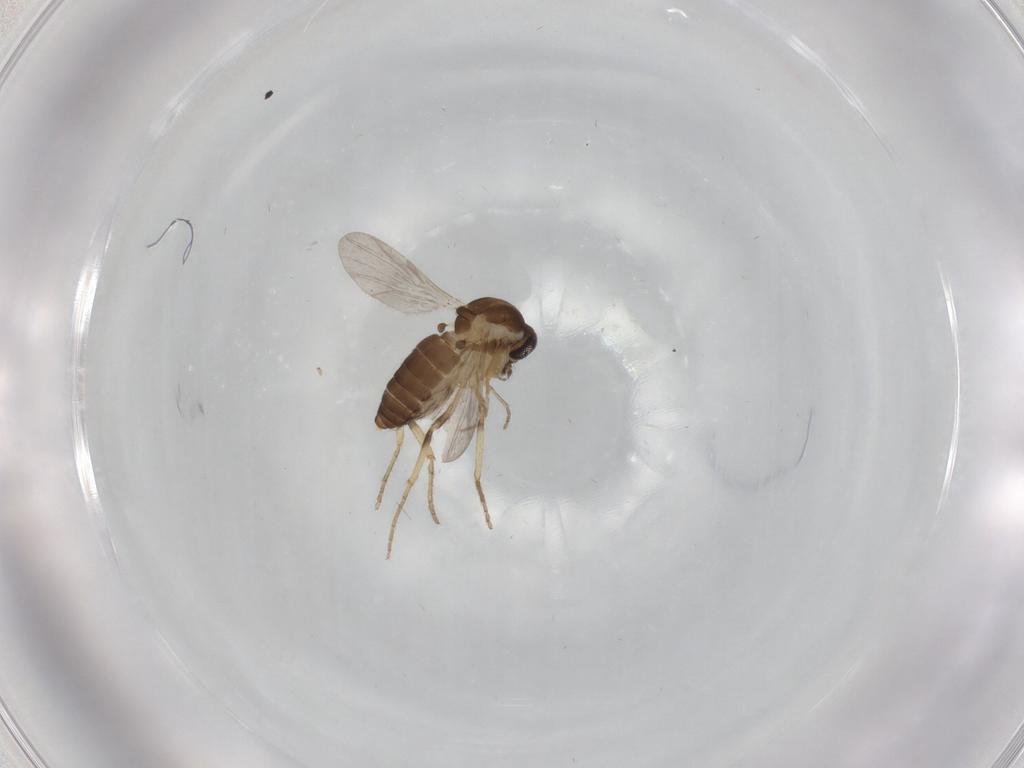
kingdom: Animalia
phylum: Arthropoda
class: Insecta
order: Diptera
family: Ceratopogonidae
